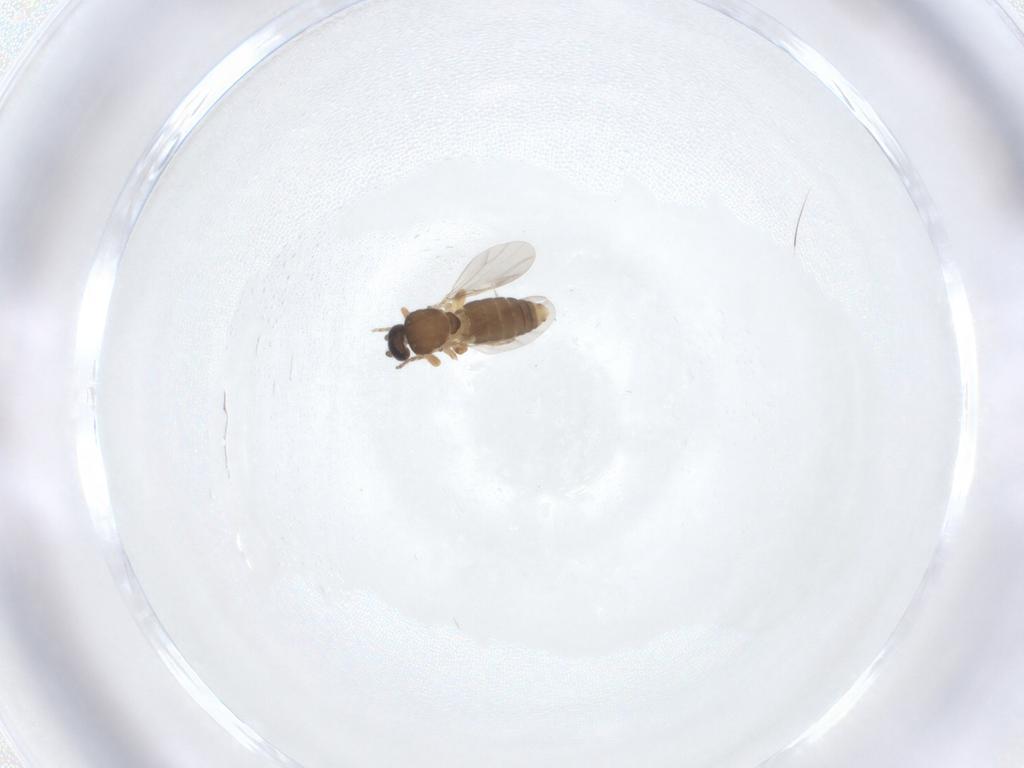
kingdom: Animalia
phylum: Arthropoda
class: Insecta
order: Diptera
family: Ceratopogonidae
